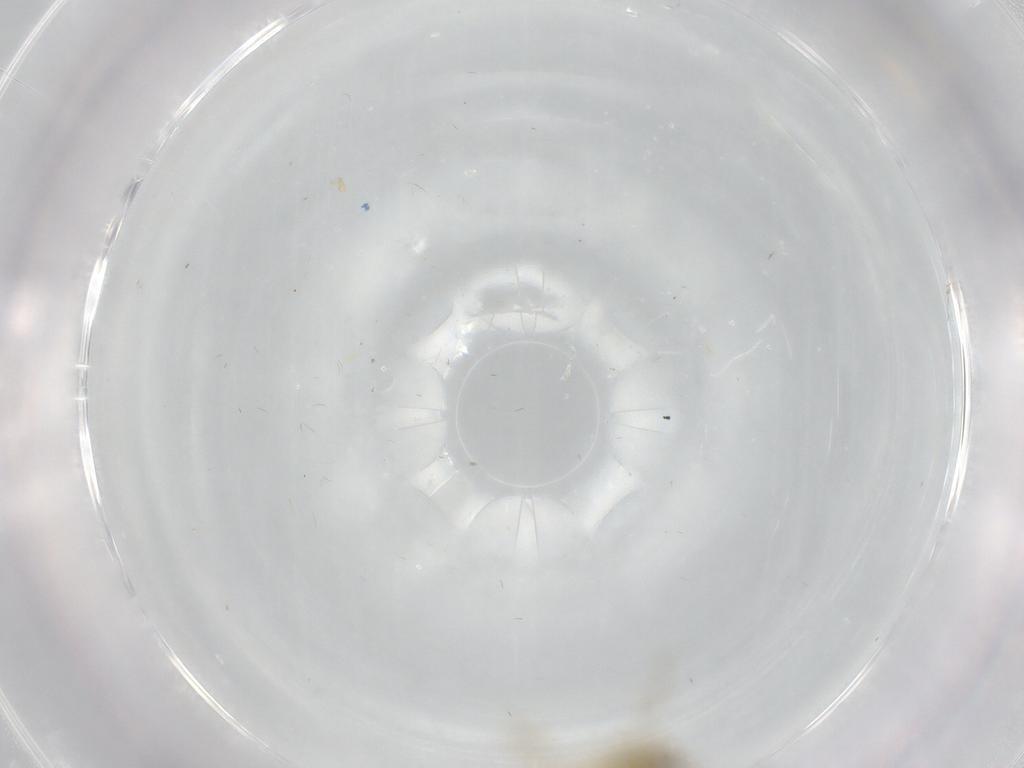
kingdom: Animalia
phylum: Arthropoda
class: Insecta
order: Diptera
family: Chironomidae
